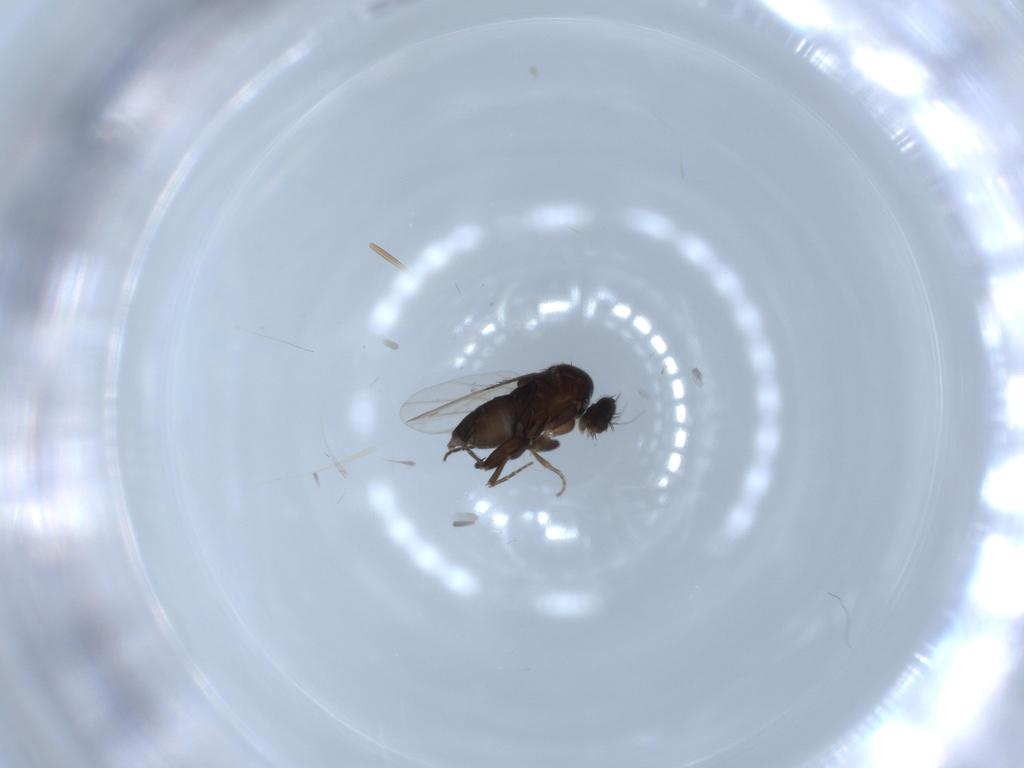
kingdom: Animalia
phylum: Arthropoda
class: Insecta
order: Diptera
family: Phoridae
